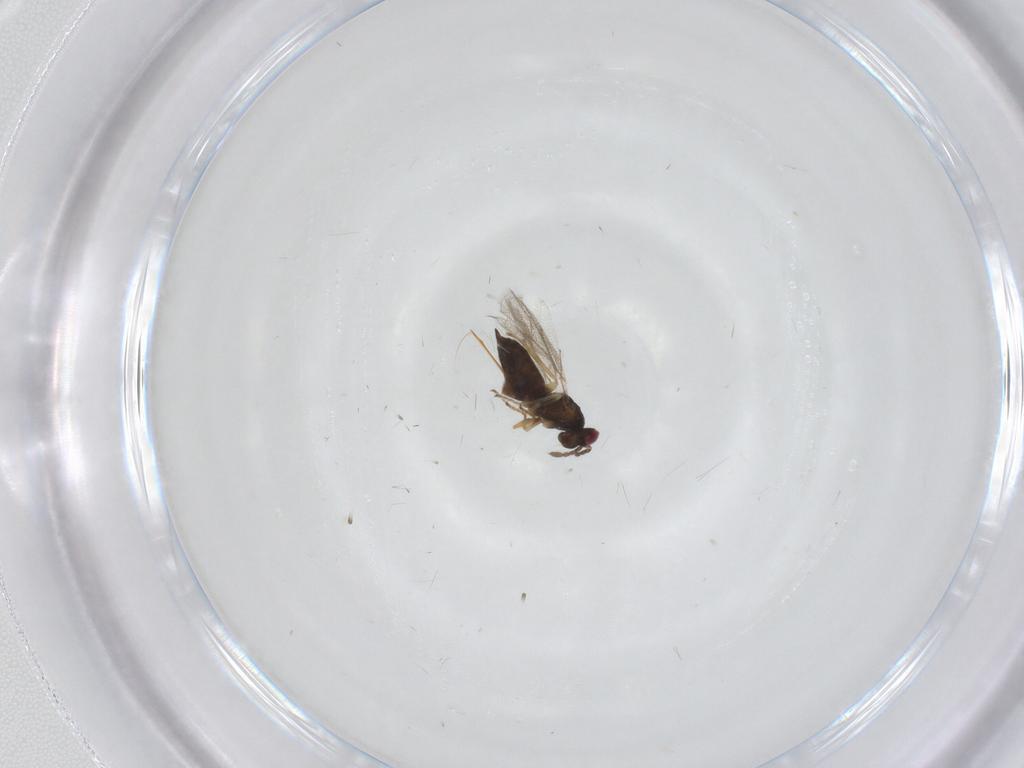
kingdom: Animalia
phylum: Arthropoda
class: Insecta
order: Hymenoptera
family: Eulophidae
